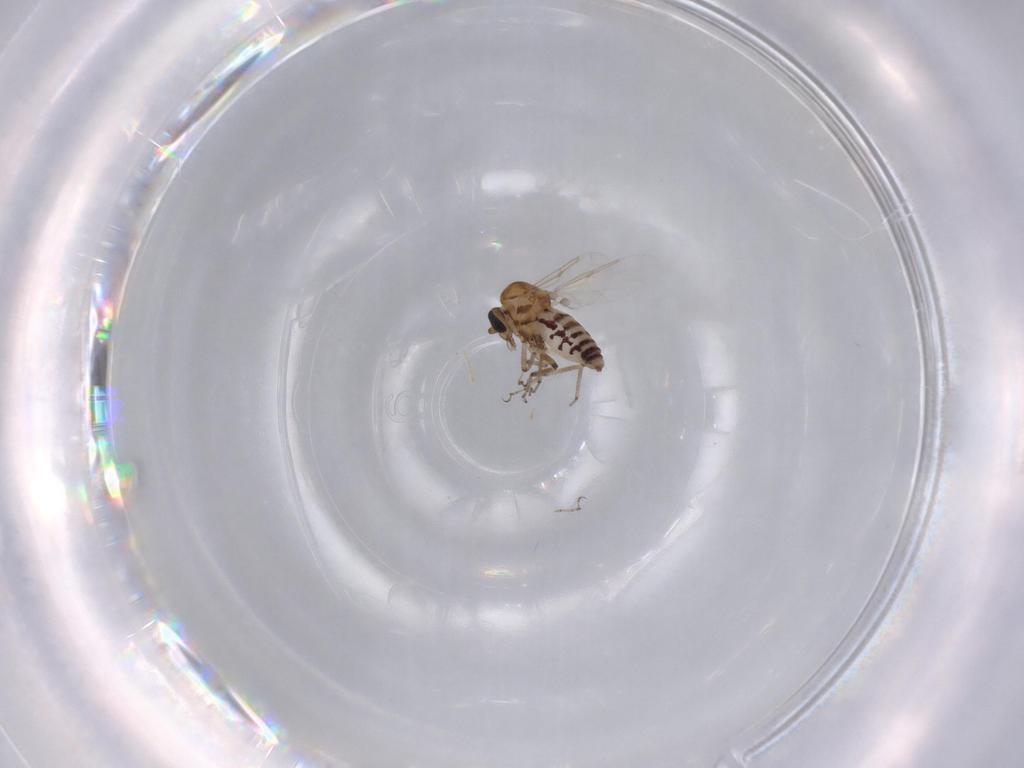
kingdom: Animalia
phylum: Arthropoda
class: Insecta
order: Diptera
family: Ceratopogonidae
